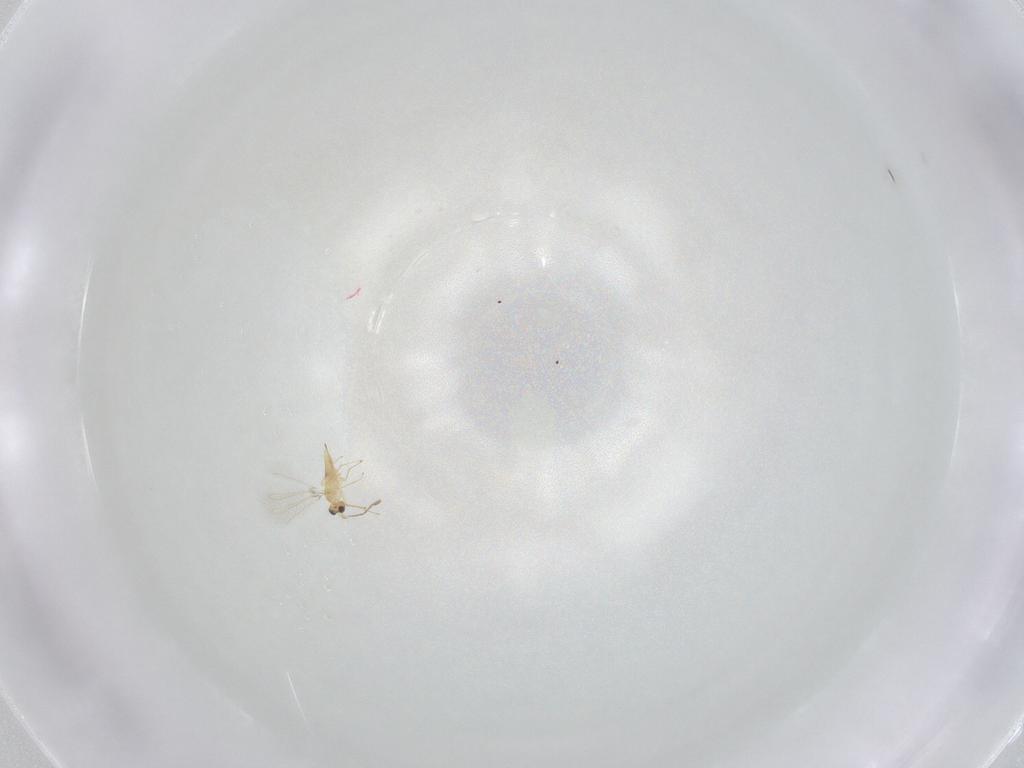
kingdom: Animalia
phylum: Arthropoda
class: Insecta
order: Hymenoptera
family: Mymaridae
